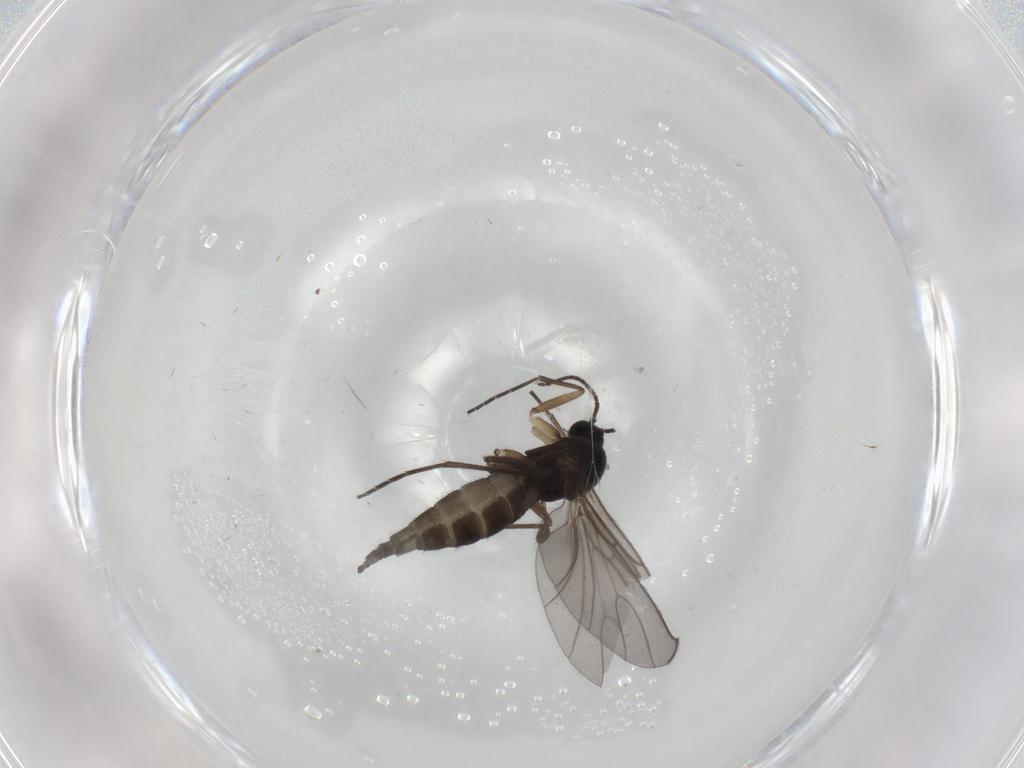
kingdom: Animalia
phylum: Arthropoda
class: Insecta
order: Diptera
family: Sciaridae
